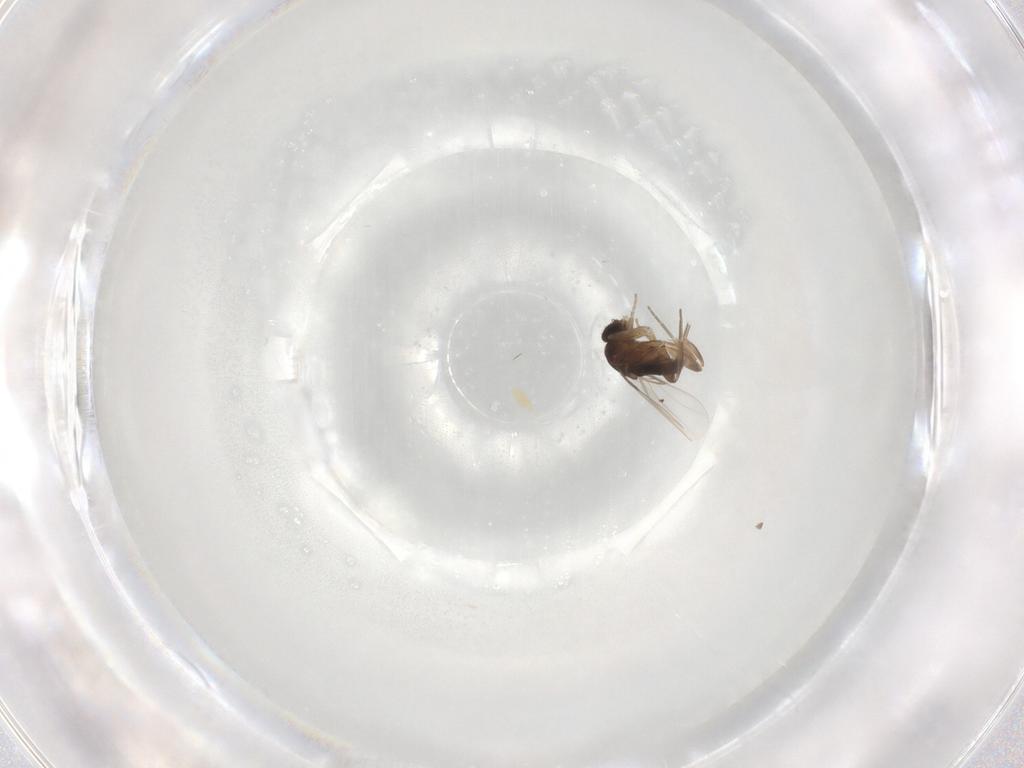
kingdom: Animalia
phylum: Arthropoda
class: Insecta
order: Diptera
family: Phoridae
